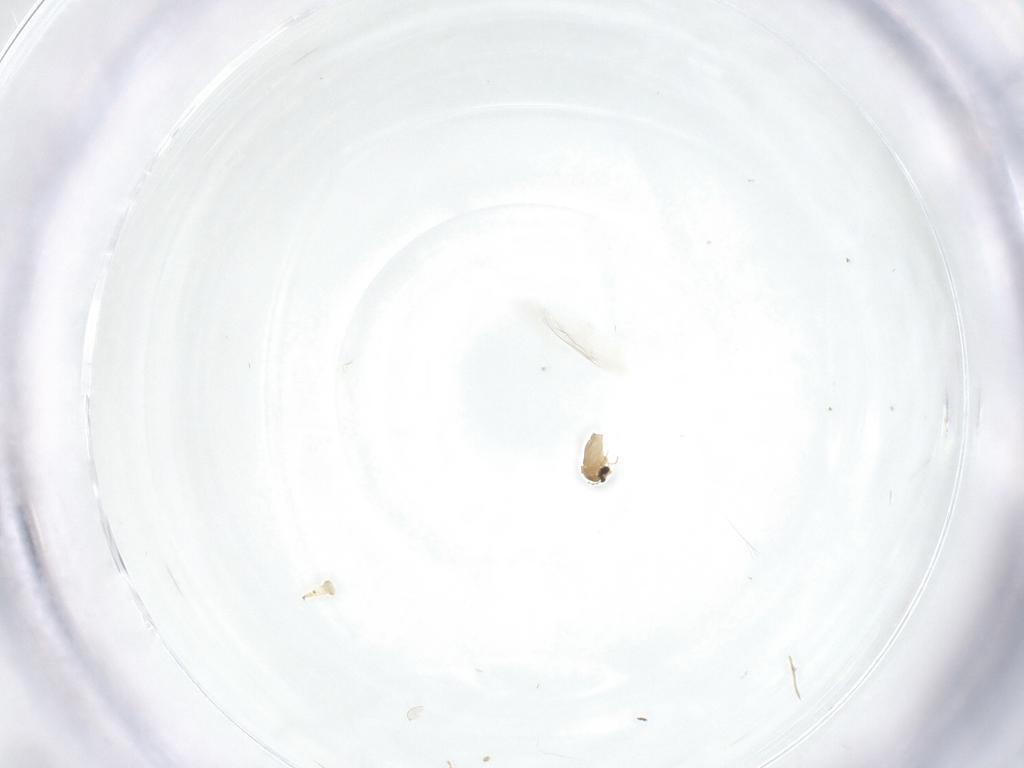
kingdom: Animalia
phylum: Arthropoda
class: Insecta
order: Diptera
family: Cecidomyiidae
